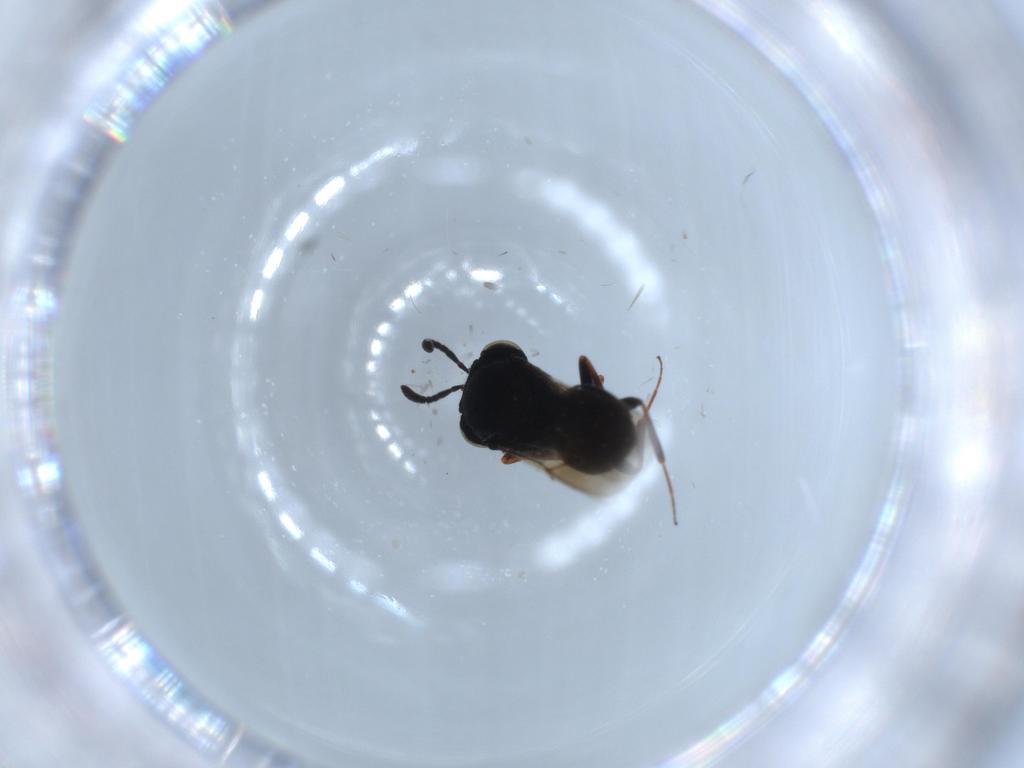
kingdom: Animalia
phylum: Arthropoda
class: Insecta
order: Hymenoptera
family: Scelionidae
